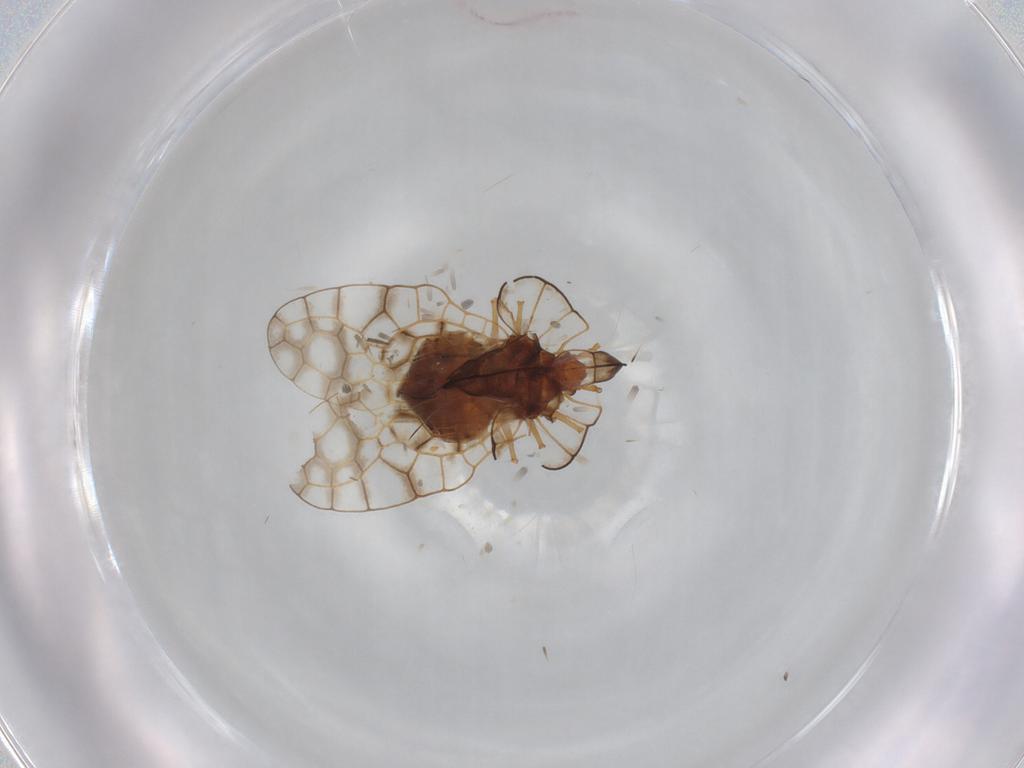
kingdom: Animalia
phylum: Arthropoda
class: Insecta
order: Hemiptera
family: Tingidae
